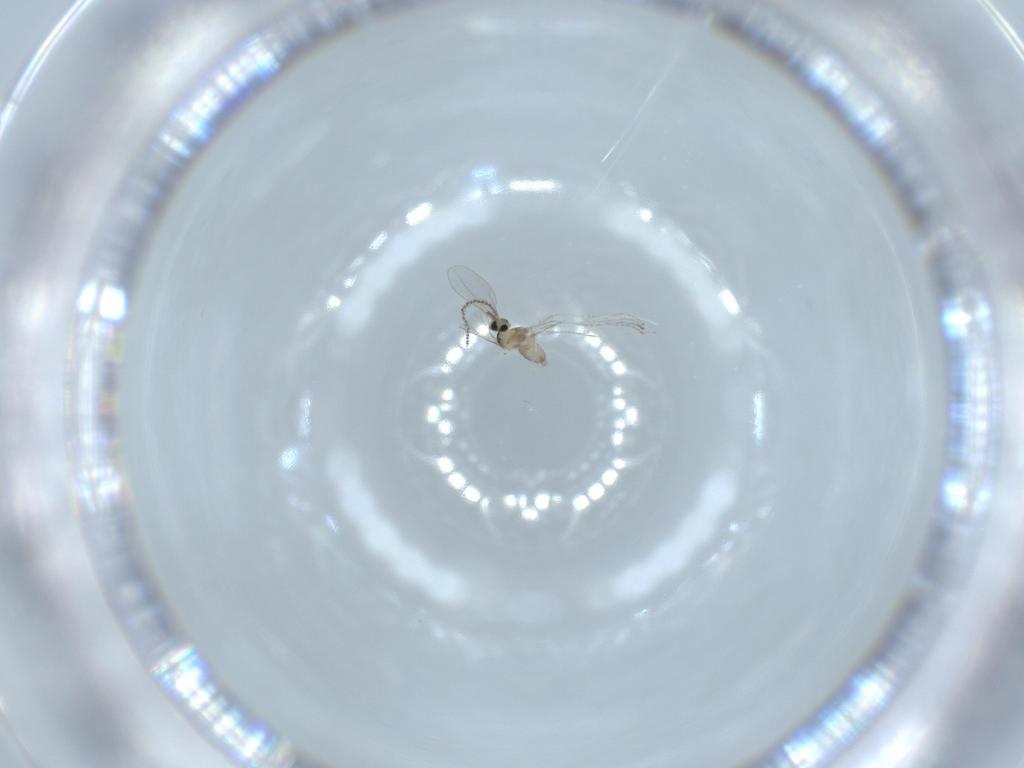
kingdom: Animalia
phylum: Arthropoda
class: Insecta
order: Diptera
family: Cecidomyiidae
